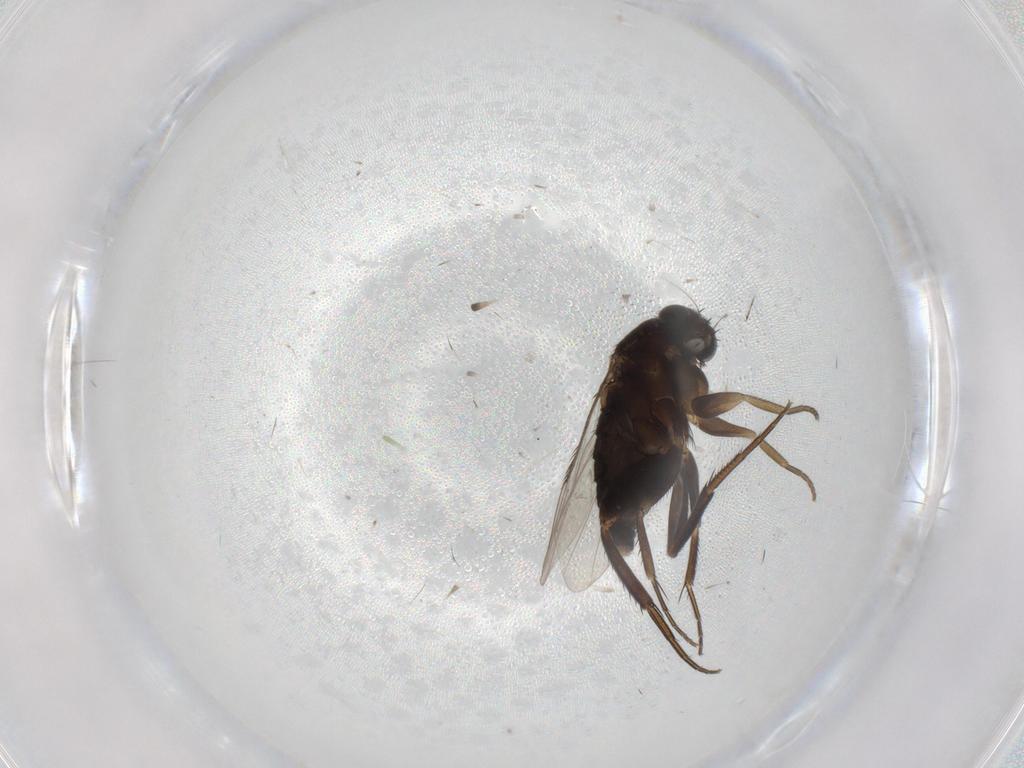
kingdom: Animalia
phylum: Arthropoda
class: Insecta
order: Diptera
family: Phoridae
